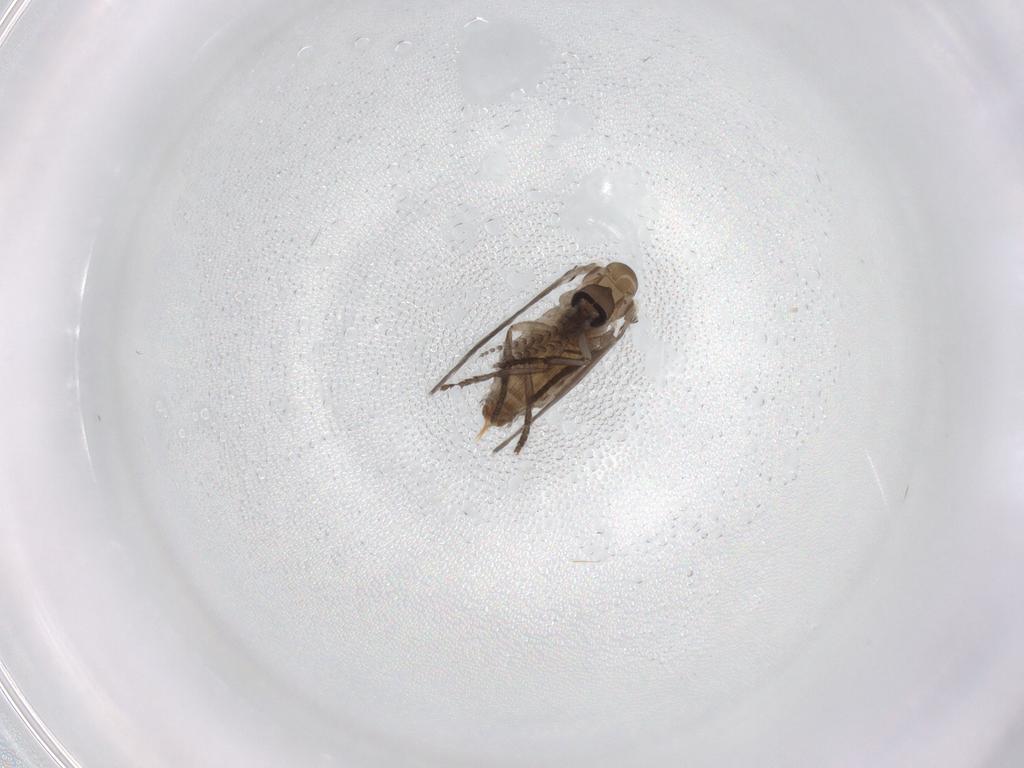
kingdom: Animalia
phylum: Arthropoda
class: Insecta
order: Diptera
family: Psychodidae
